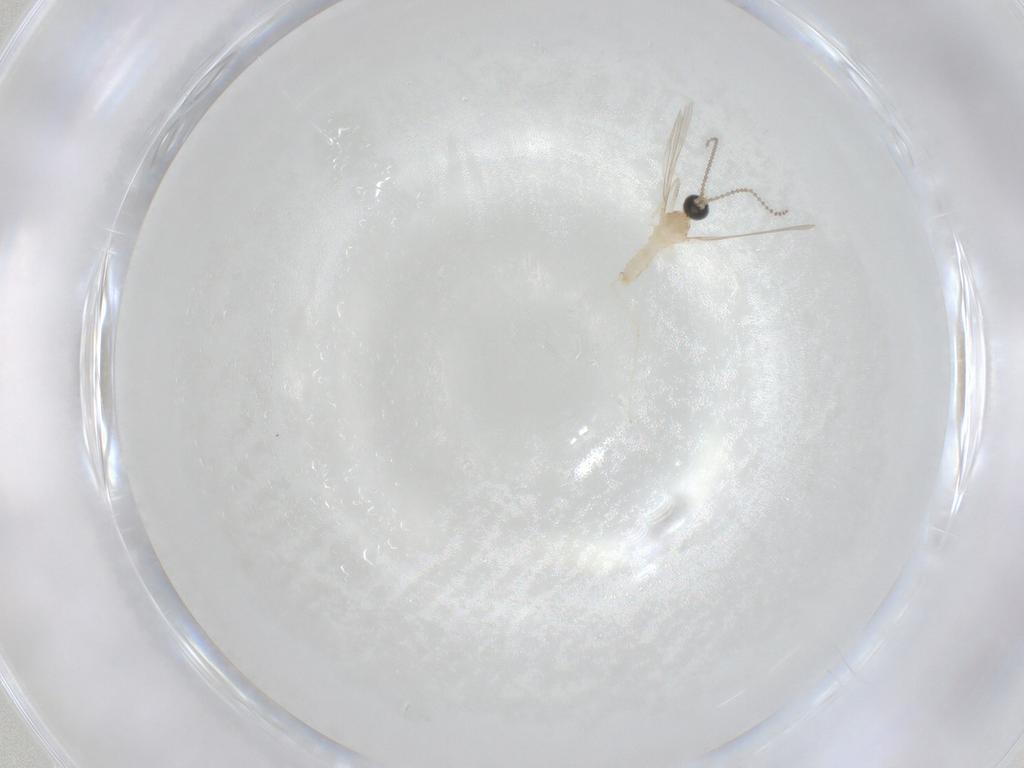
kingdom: Animalia
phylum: Arthropoda
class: Insecta
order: Diptera
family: Cecidomyiidae
